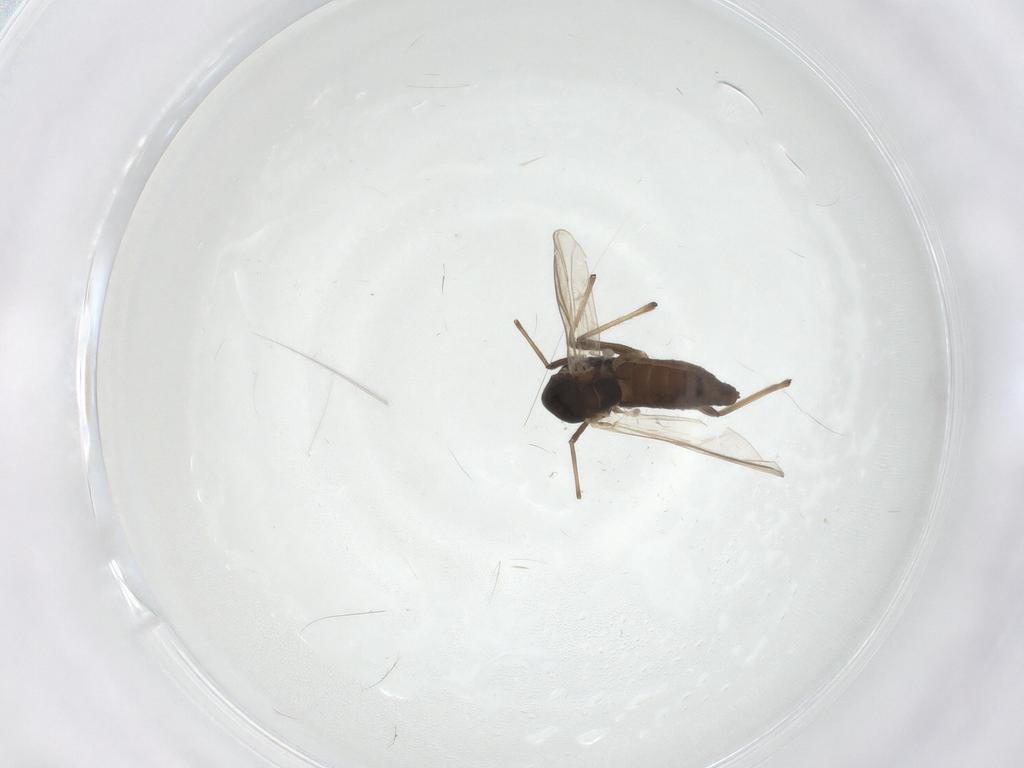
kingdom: Animalia
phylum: Arthropoda
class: Insecta
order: Diptera
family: Chironomidae
